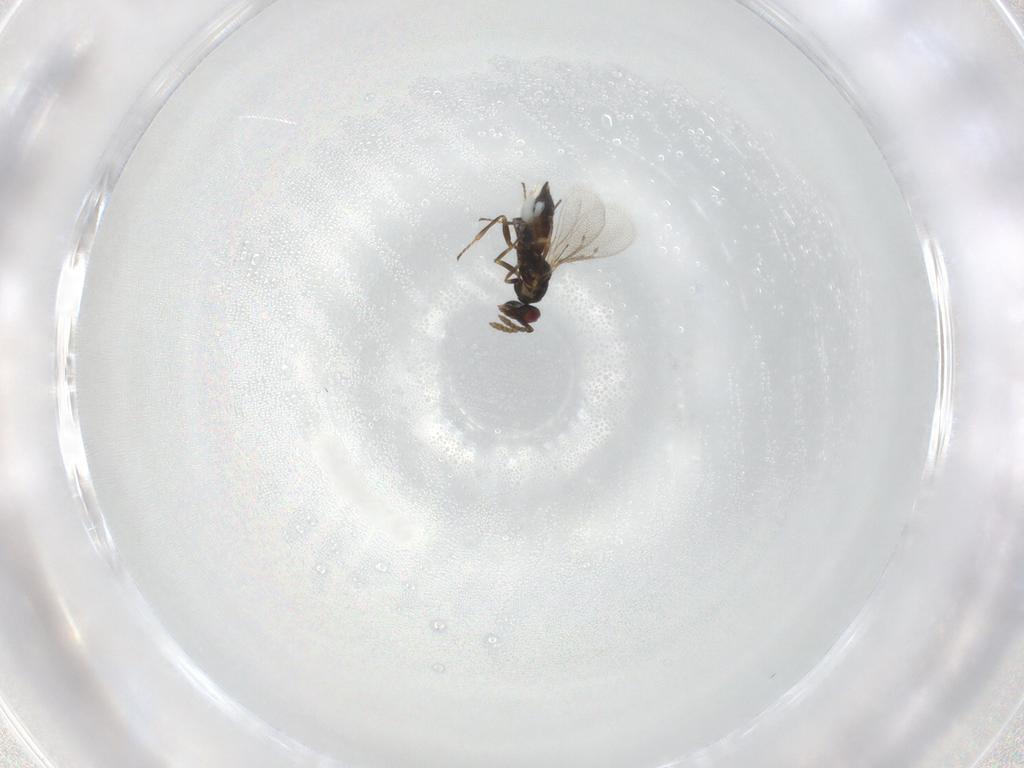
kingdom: Animalia
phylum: Arthropoda
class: Insecta
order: Hymenoptera
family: Eulophidae
